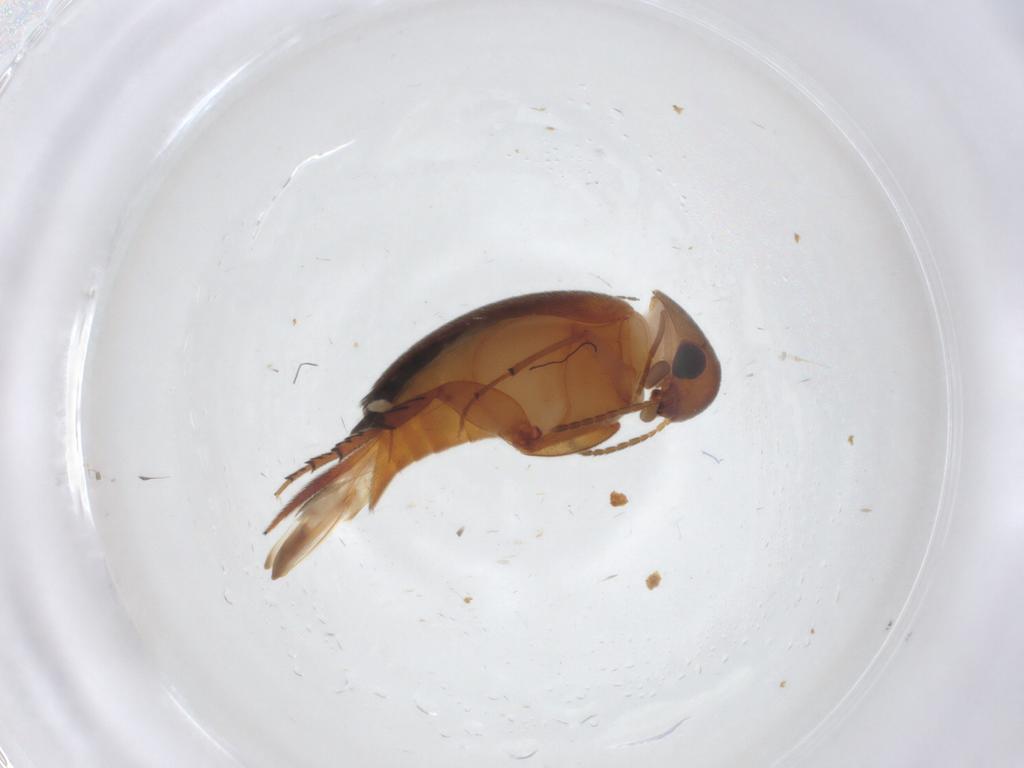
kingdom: Animalia
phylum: Arthropoda
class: Insecta
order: Coleoptera
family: Mordellidae
